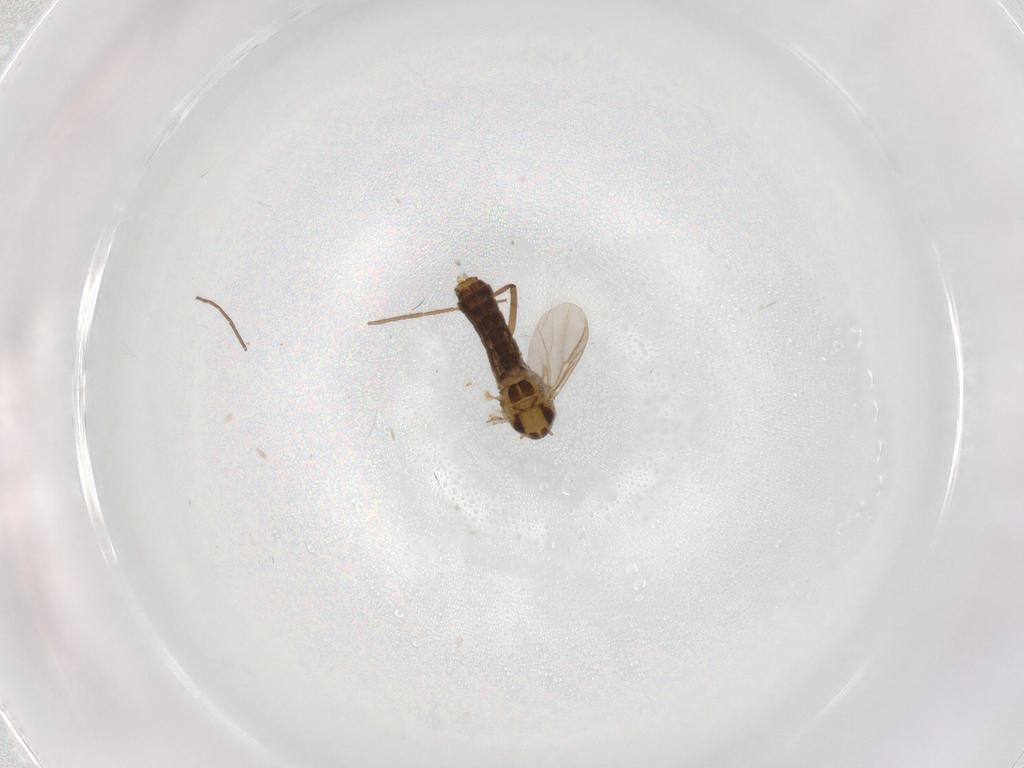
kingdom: Animalia
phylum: Arthropoda
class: Insecta
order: Diptera
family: Chironomidae
